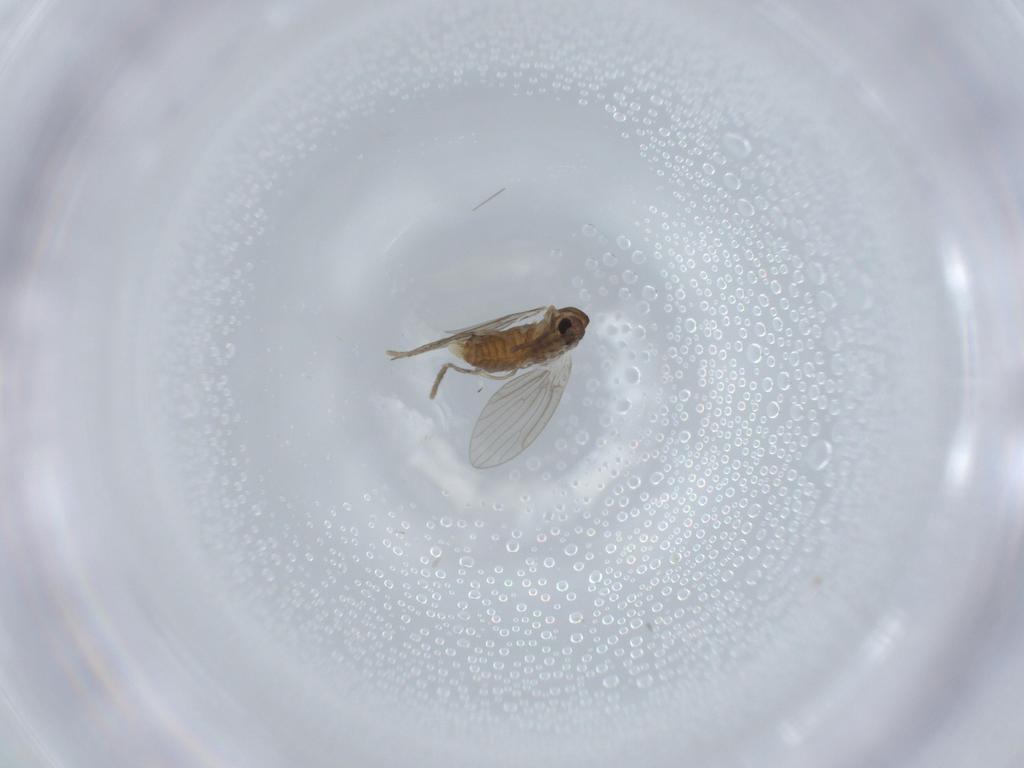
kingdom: Animalia
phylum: Arthropoda
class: Insecta
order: Diptera
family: Psychodidae
